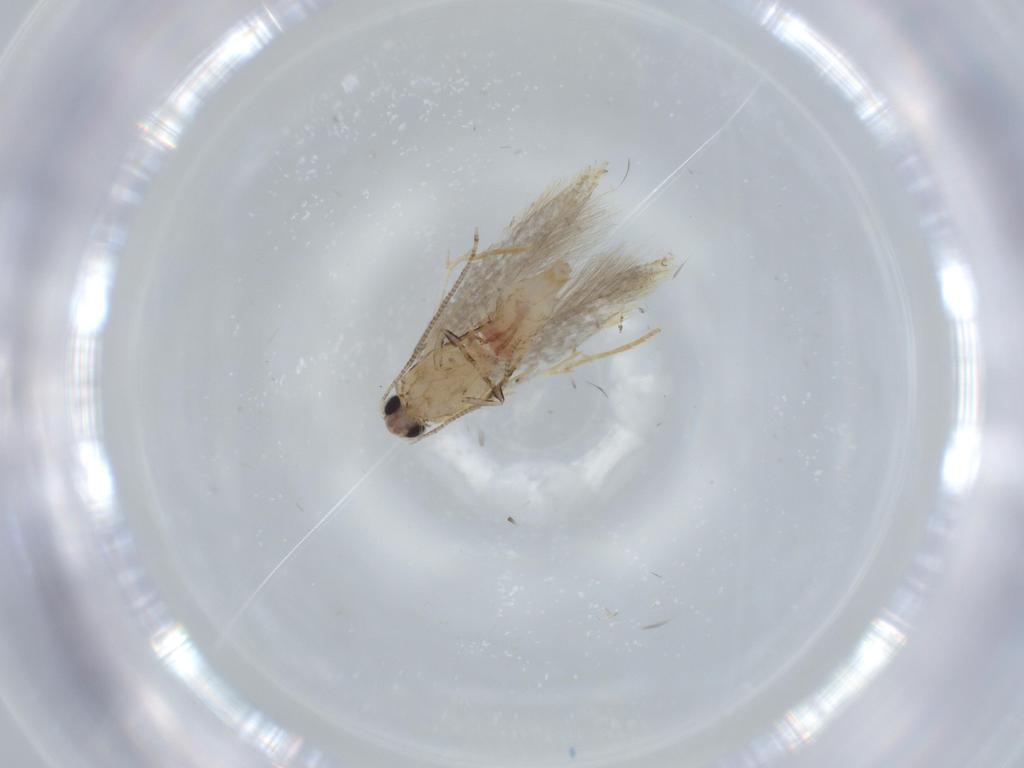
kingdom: Animalia
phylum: Arthropoda
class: Insecta
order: Lepidoptera
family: Tineidae
